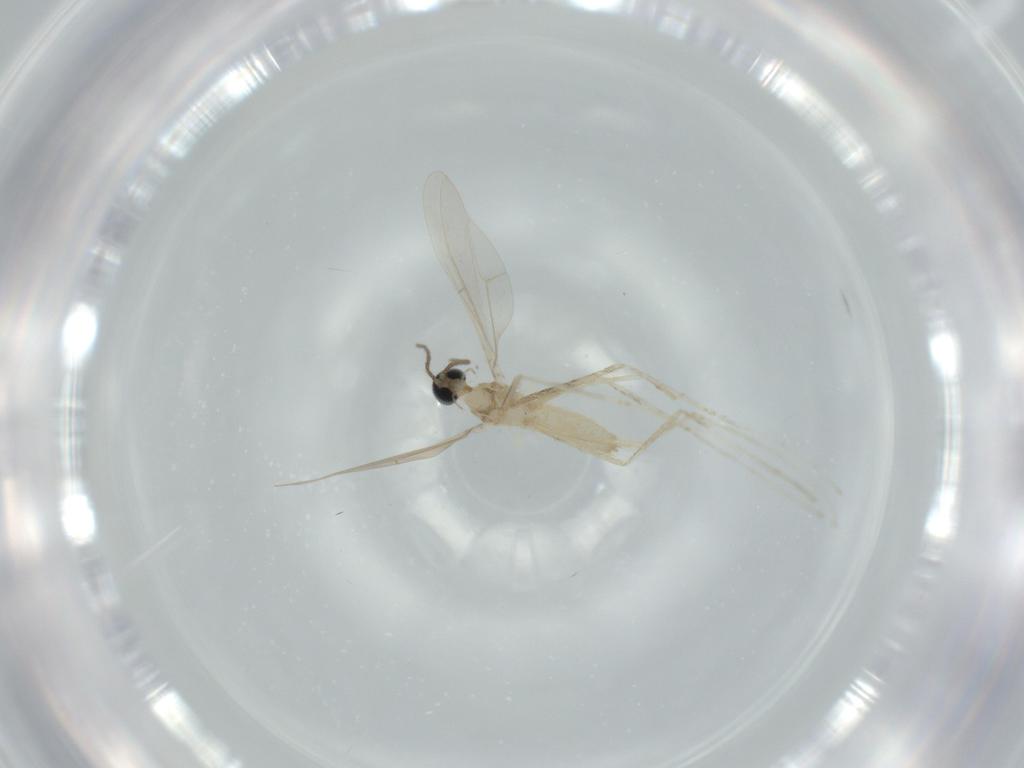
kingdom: Animalia
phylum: Arthropoda
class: Insecta
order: Diptera
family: Cecidomyiidae
